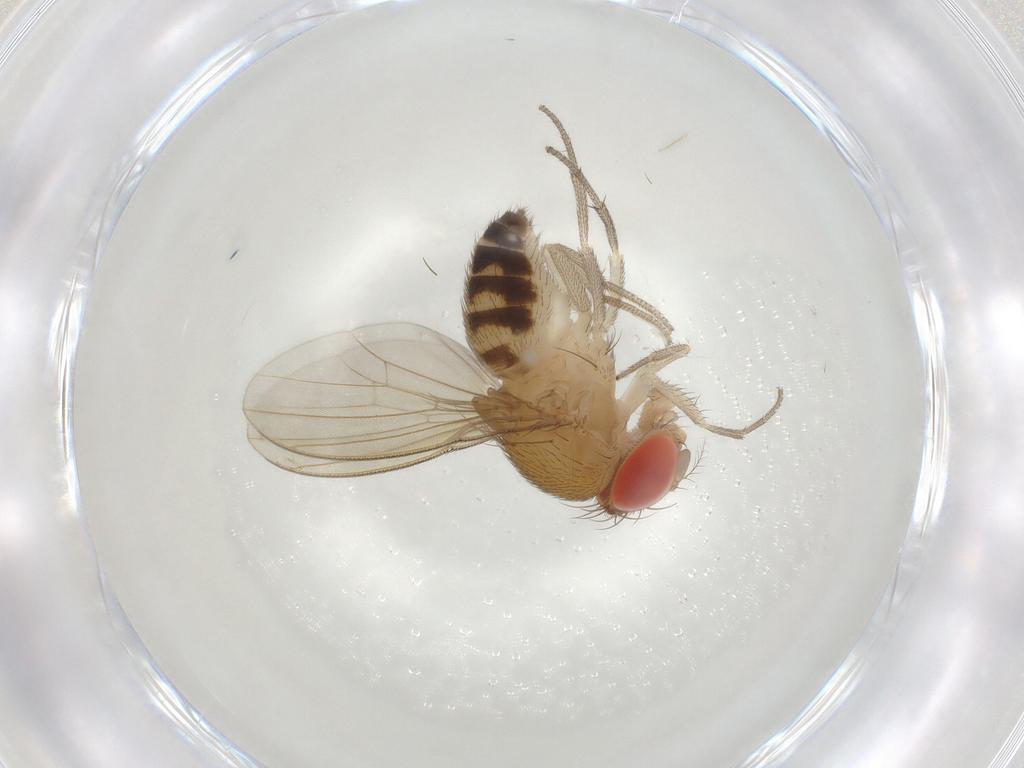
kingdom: Animalia
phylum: Arthropoda
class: Insecta
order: Diptera
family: Drosophilidae
